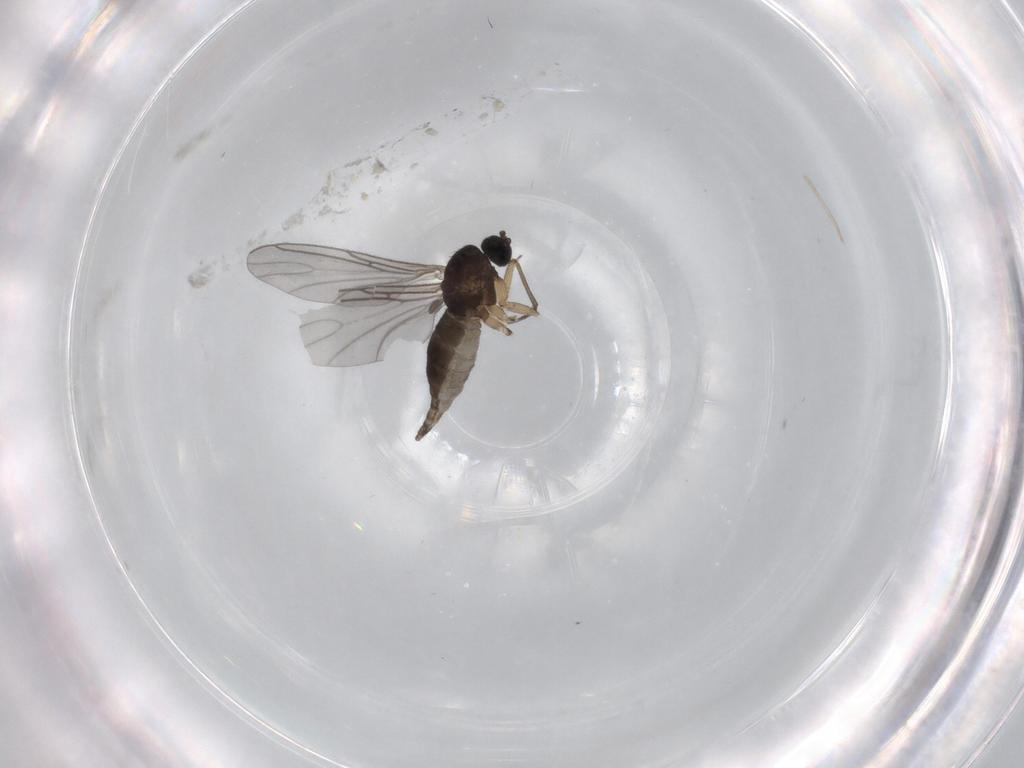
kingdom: Animalia
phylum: Arthropoda
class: Insecta
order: Diptera
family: Sciaridae
